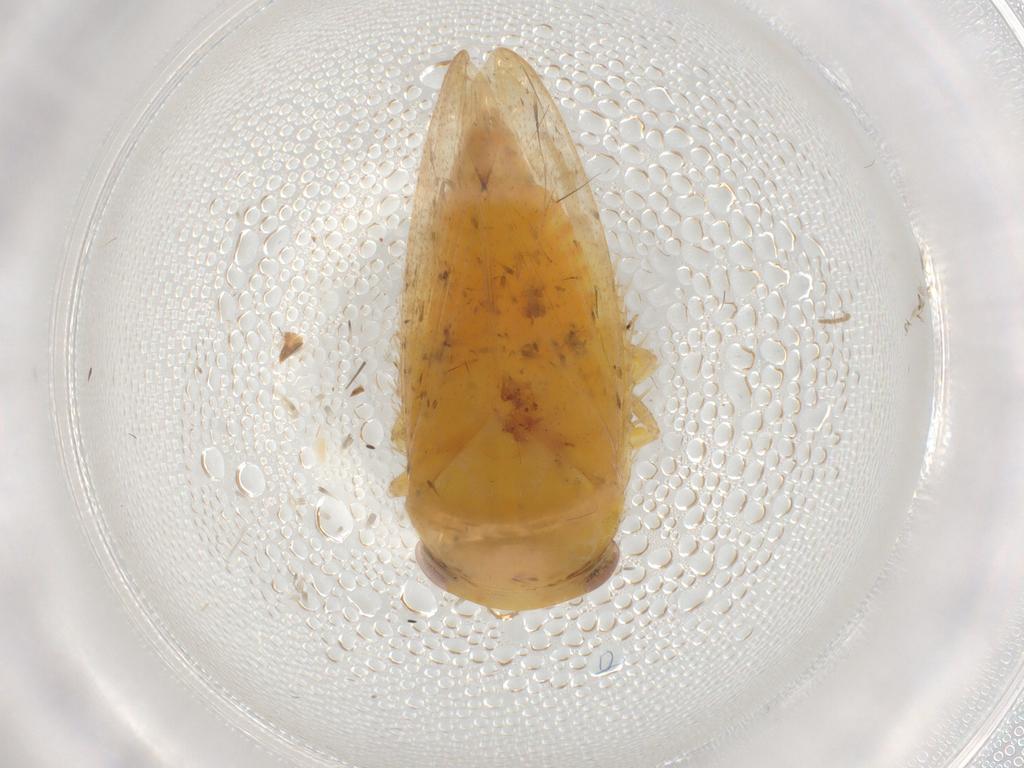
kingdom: Animalia
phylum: Arthropoda
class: Insecta
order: Hemiptera
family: Cicadellidae
